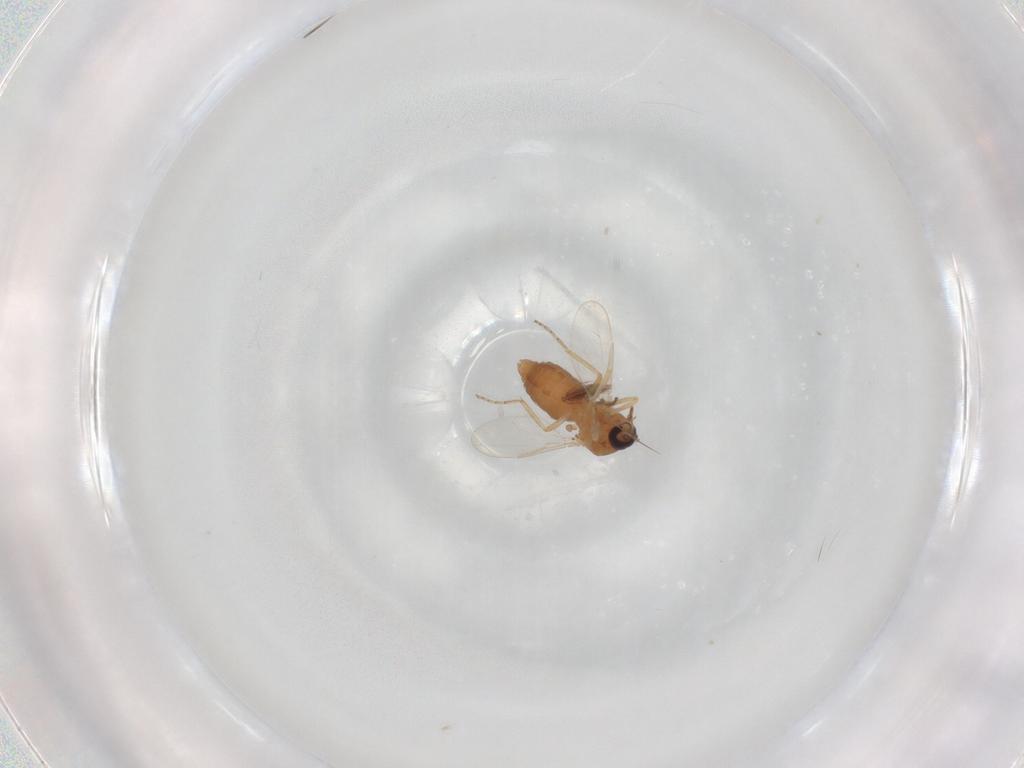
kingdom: Animalia
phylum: Arthropoda
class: Insecta
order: Diptera
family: Ceratopogonidae
